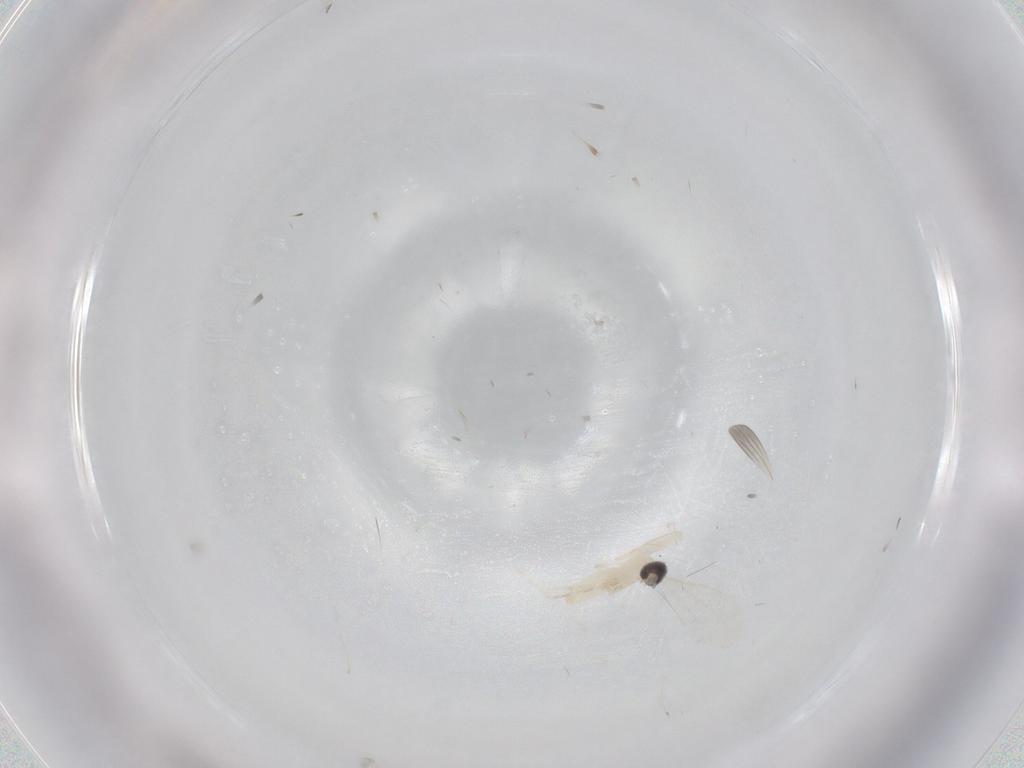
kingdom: Animalia
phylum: Arthropoda
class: Insecta
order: Diptera
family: Cecidomyiidae
